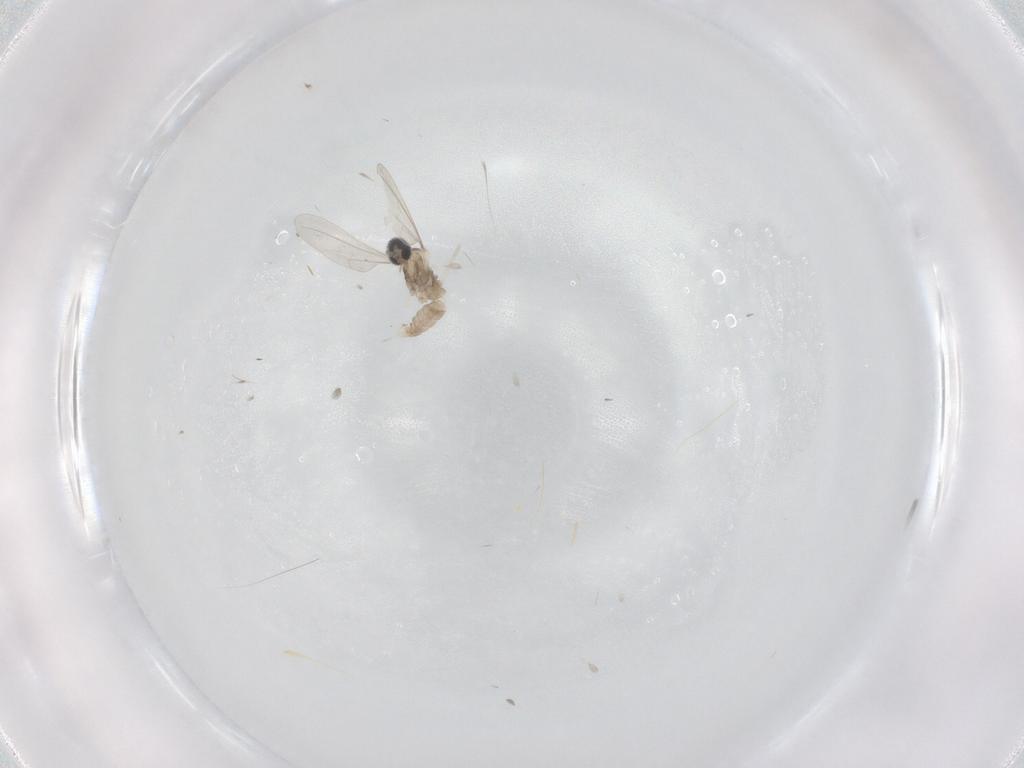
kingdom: Animalia
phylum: Arthropoda
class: Insecta
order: Diptera
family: Cecidomyiidae
